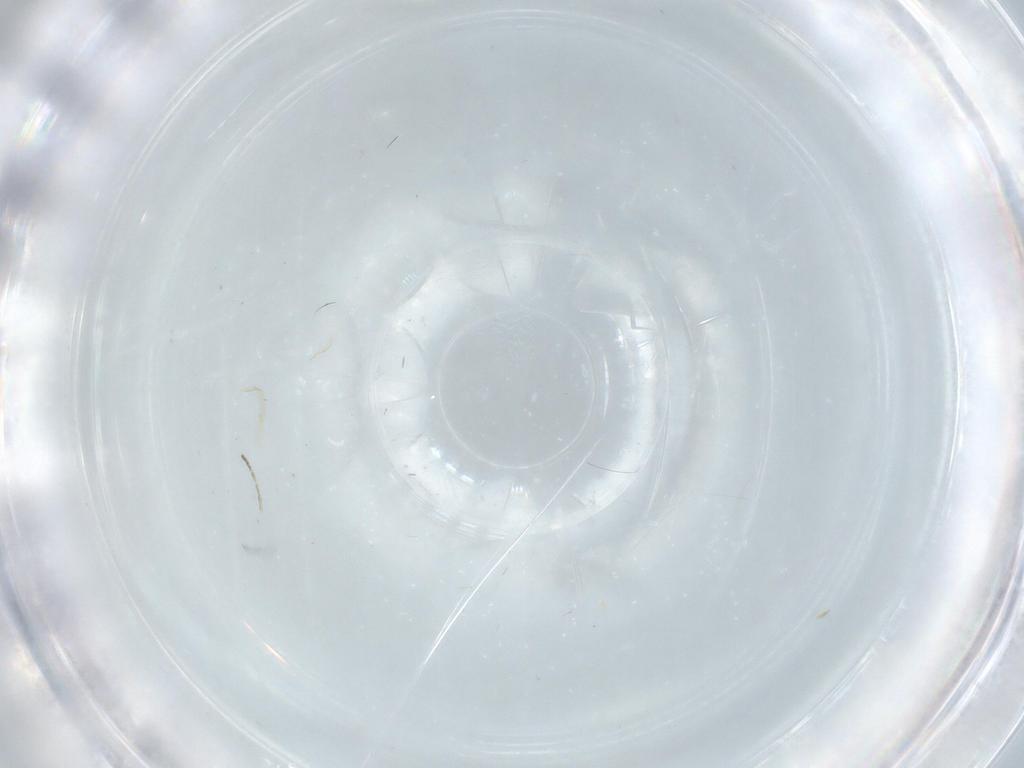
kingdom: Animalia
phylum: Arthropoda
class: Insecta
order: Diptera
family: Cecidomyiidae
